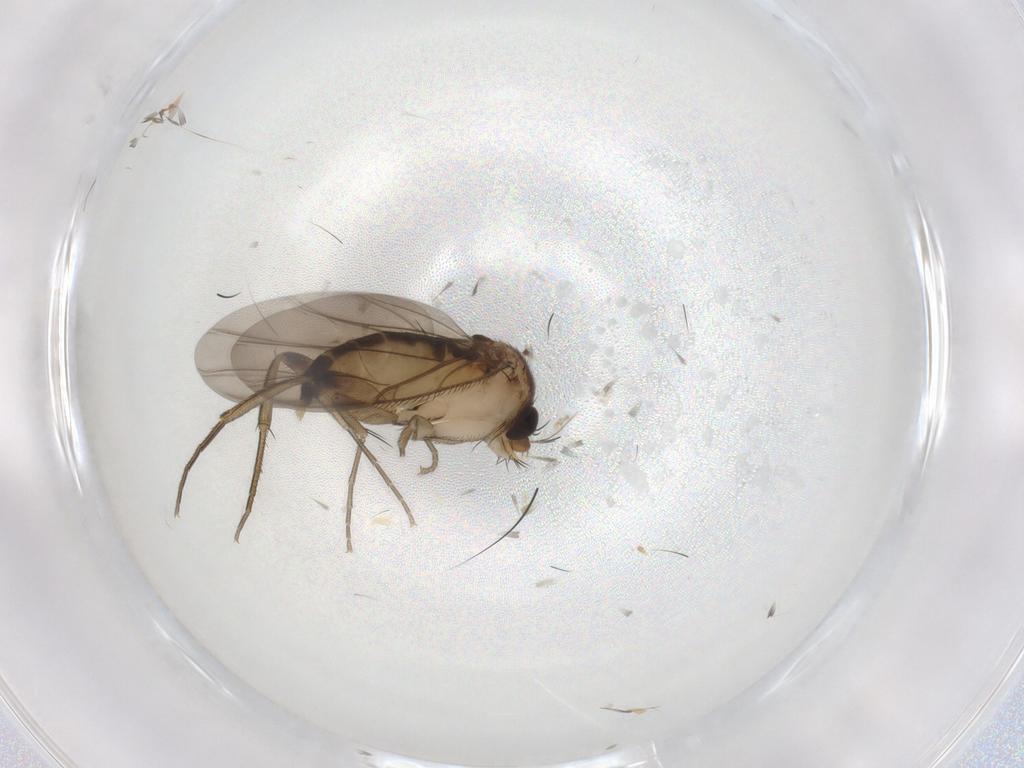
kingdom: Animalia
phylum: Arthropoda
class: Insecta
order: Diptera
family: Phoridae
